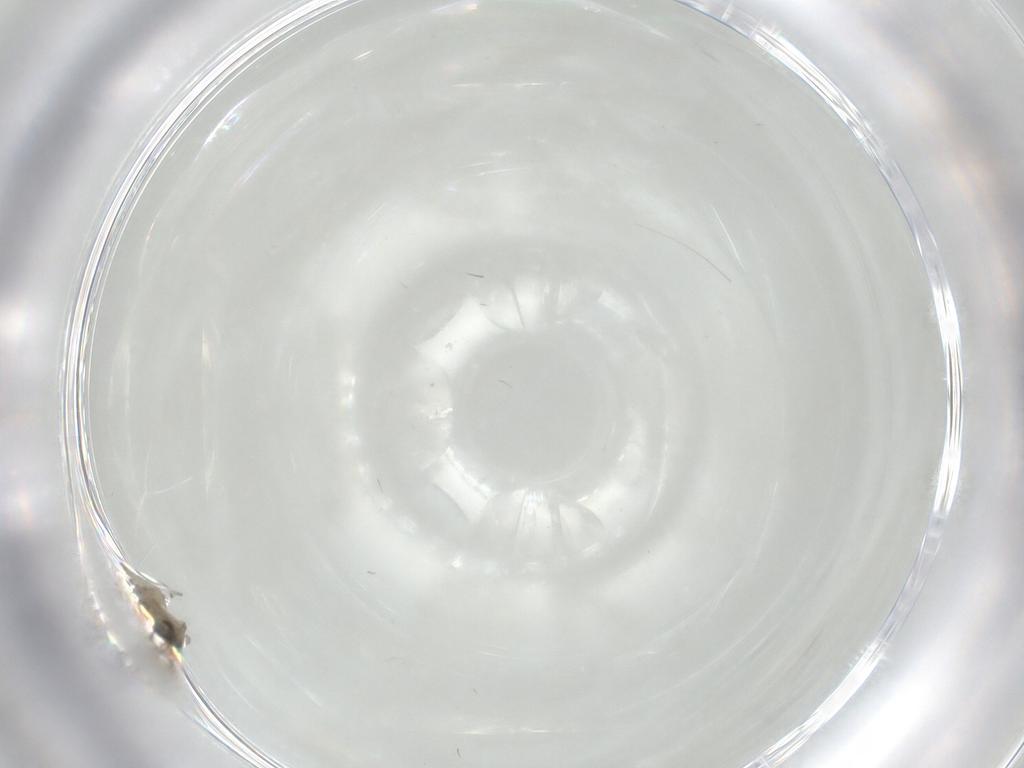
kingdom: Animalia
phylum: Arthropoda
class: Insecta
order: Diptera
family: Cecidomyiidae
